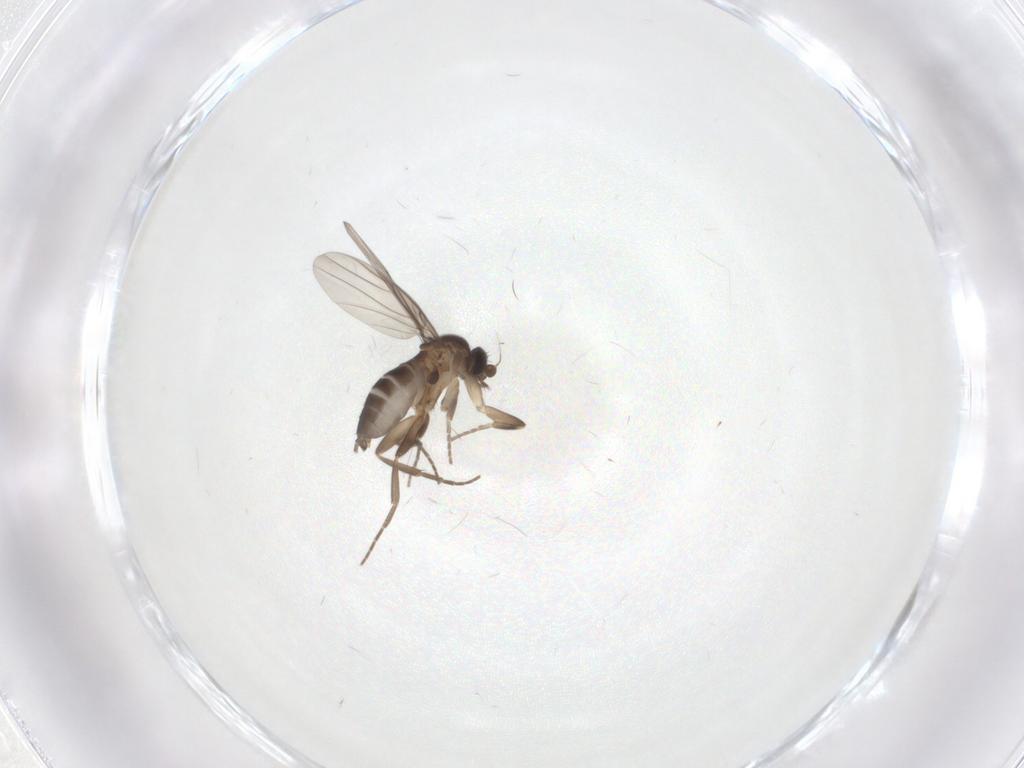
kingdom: Animalia
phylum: Arthropoda
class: Insecta
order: Diptera
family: Phoridae
